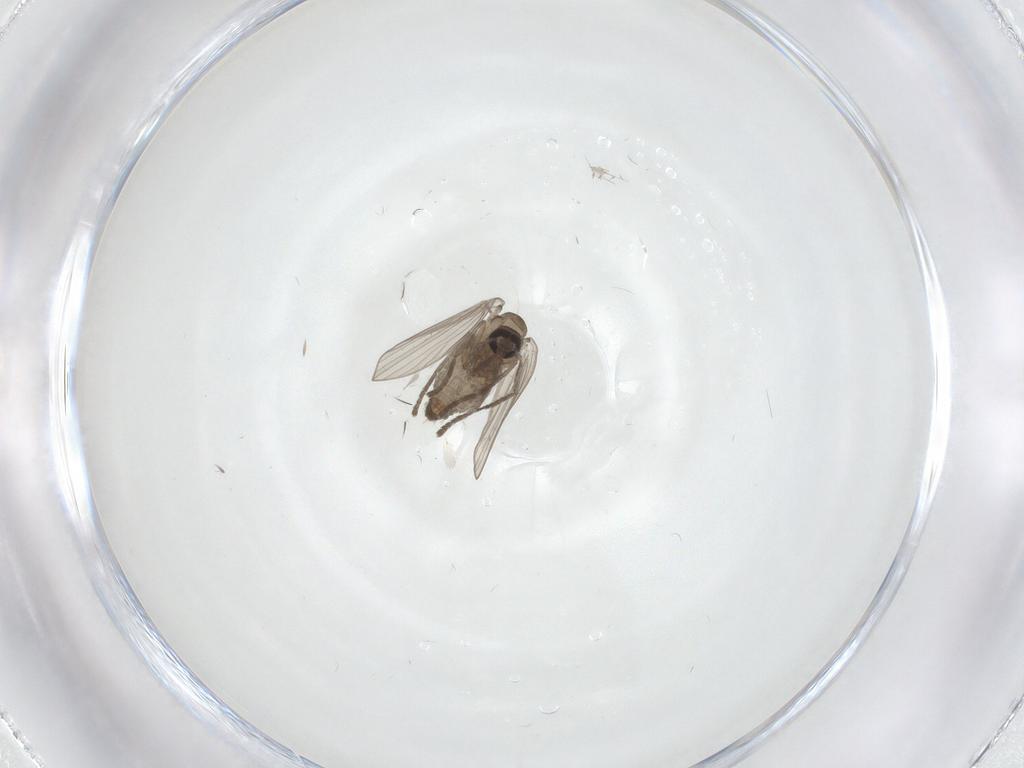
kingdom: Animalia
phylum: Arthropoda
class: Insecta
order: Diptera
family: Psychodidae
